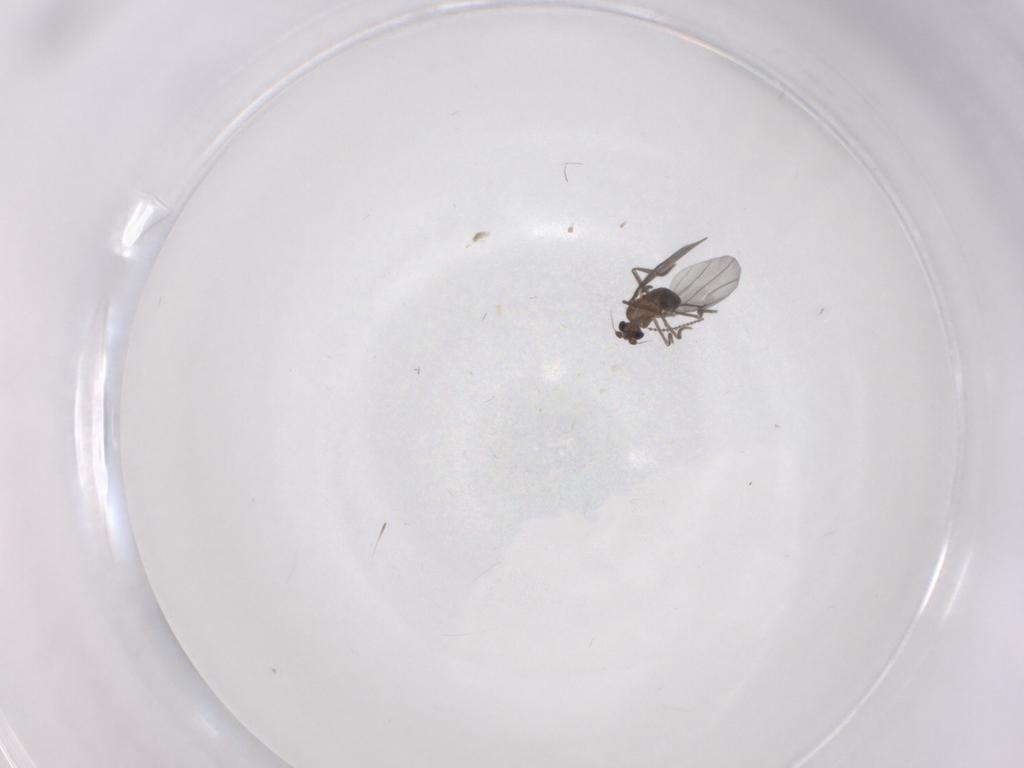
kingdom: Animalia
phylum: Arthropoda
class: Insecta
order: Diptera
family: Phoridae
